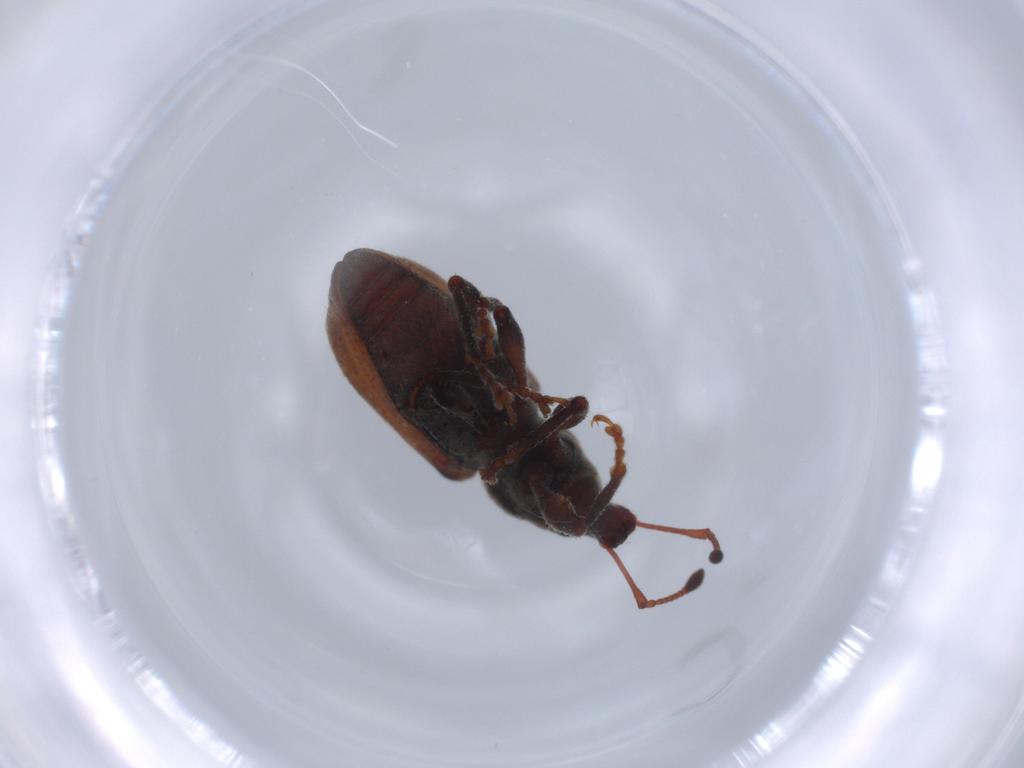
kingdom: Animalia
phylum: Arthropoda
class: Insecta
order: Coleoptera
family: Curculionidae
